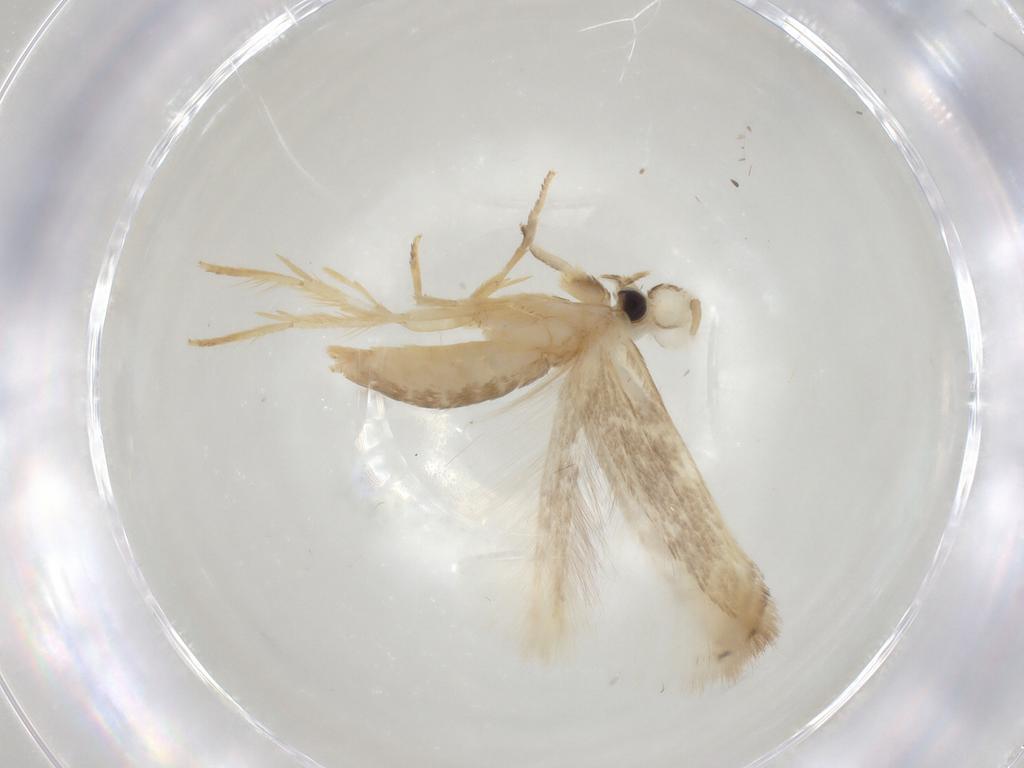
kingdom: Animalia
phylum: Arthropoda
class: Insecta
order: Lepidoptera
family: Opostegidae
